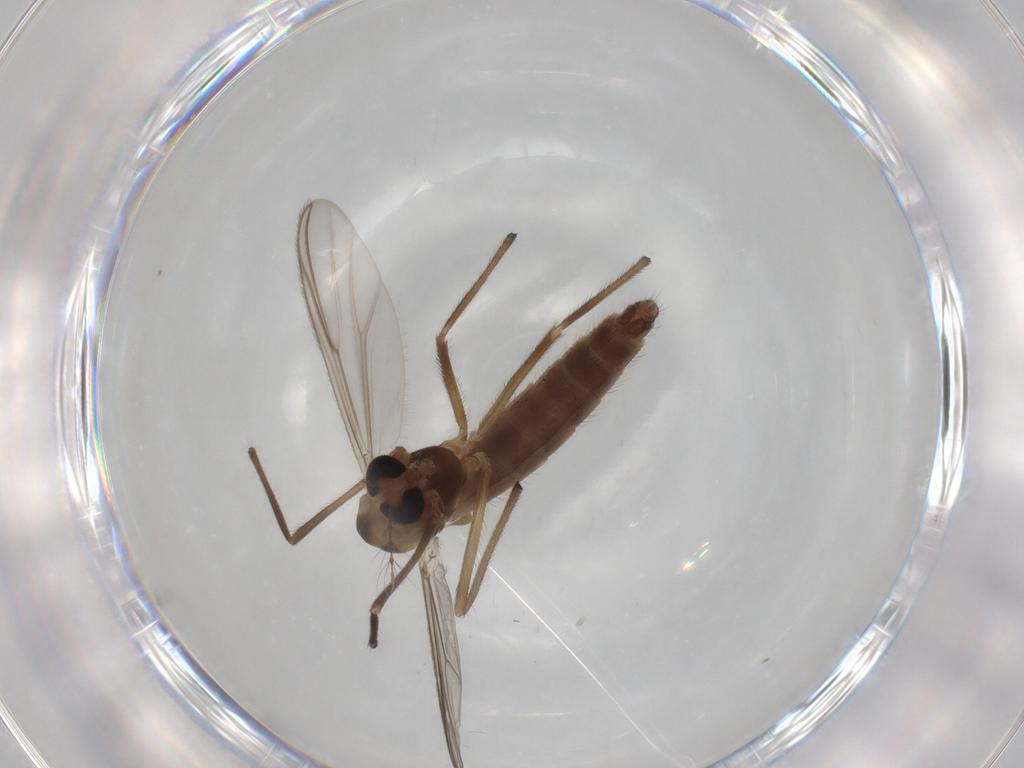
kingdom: Animalia
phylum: Arthropoda
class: Insecta
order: Diptera
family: Chironomidae
